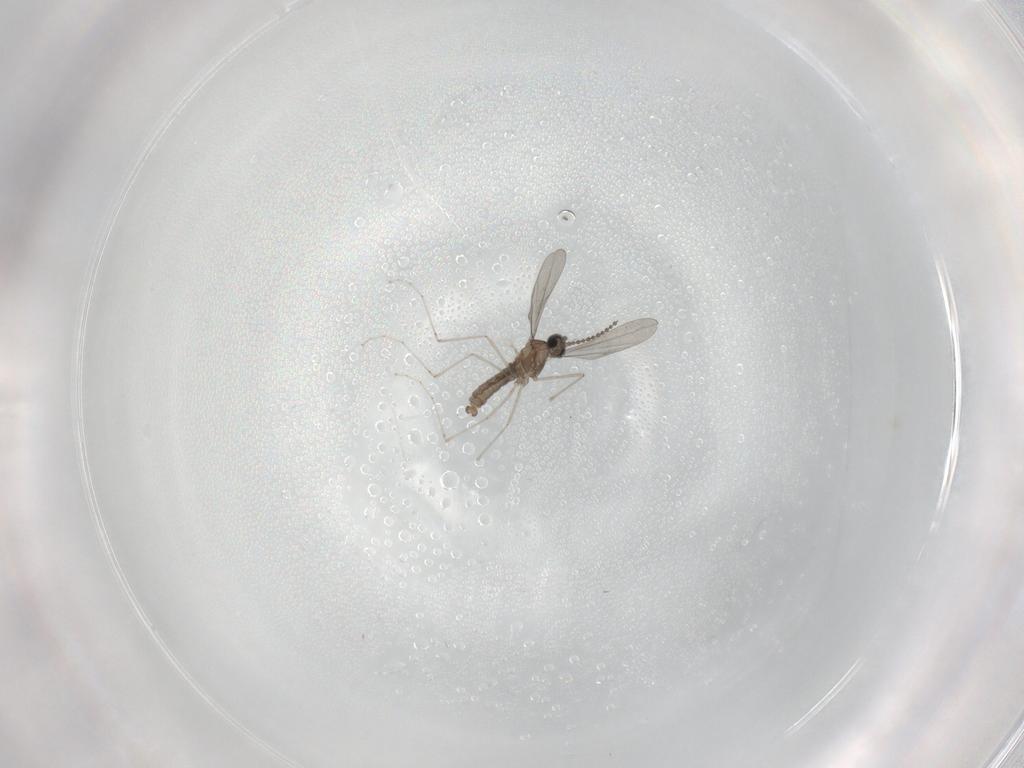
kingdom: Animalia
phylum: Arthropoda
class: Insecta
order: Diptera
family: Cecidomyiidae
